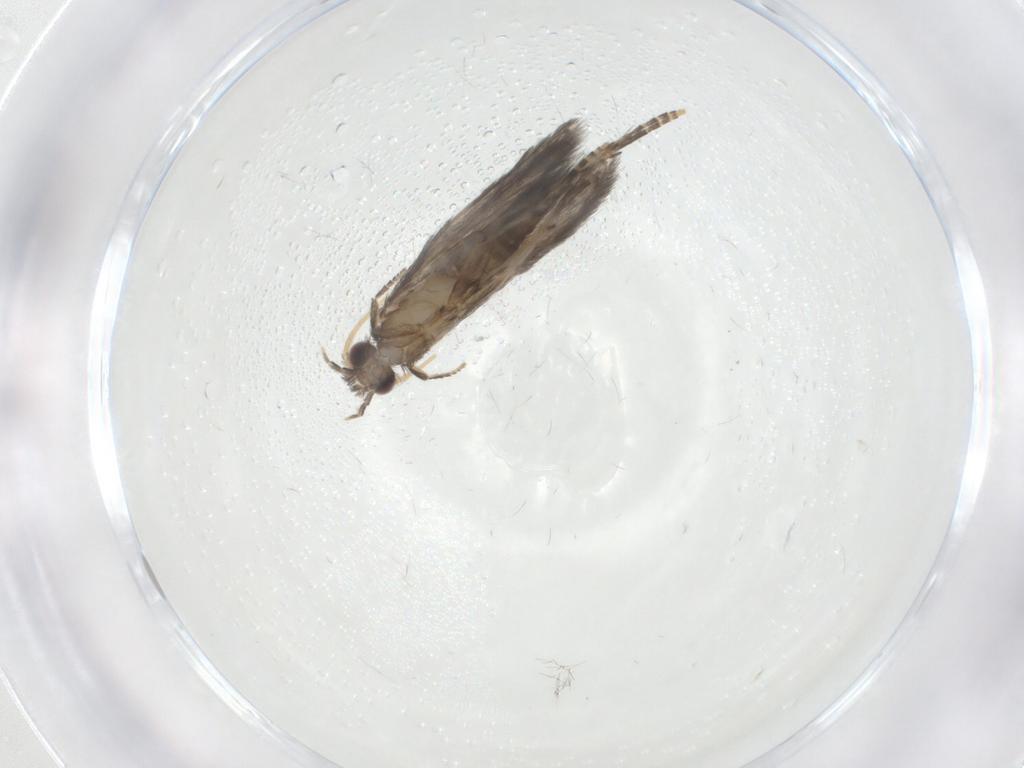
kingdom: Animalia
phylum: Arthropoda
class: Insecta
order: Trichoptera
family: Hydroptilidae
